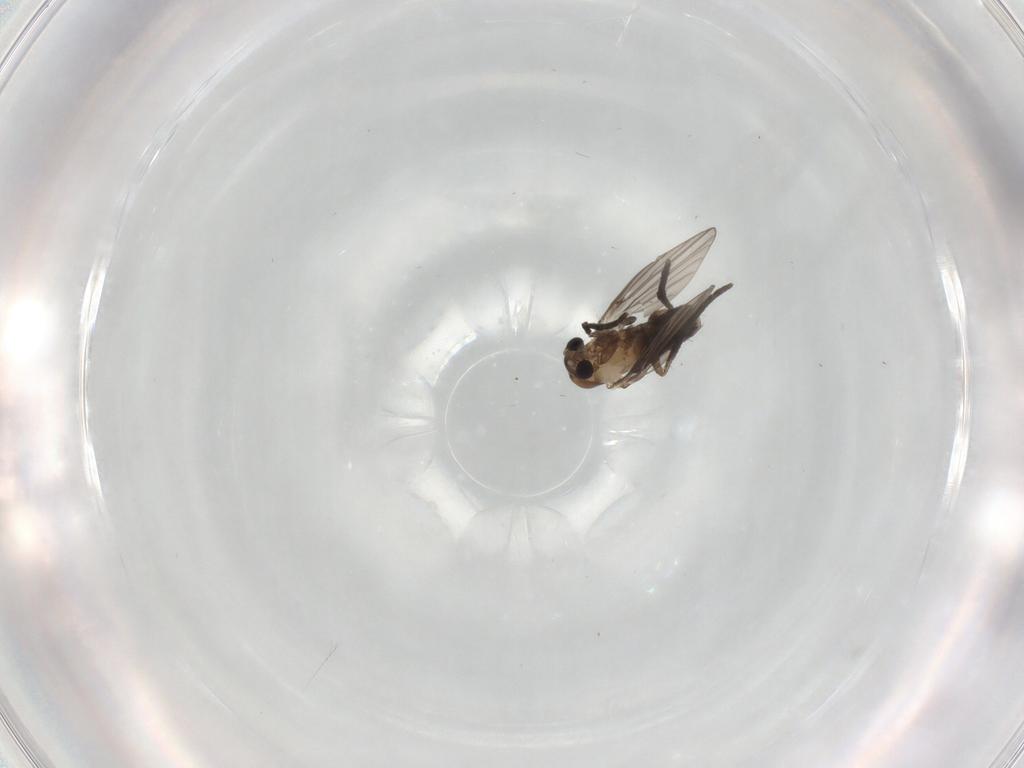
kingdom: Animalia
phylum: Arthropoda
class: Insecta
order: Diptera
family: Psychodidae
